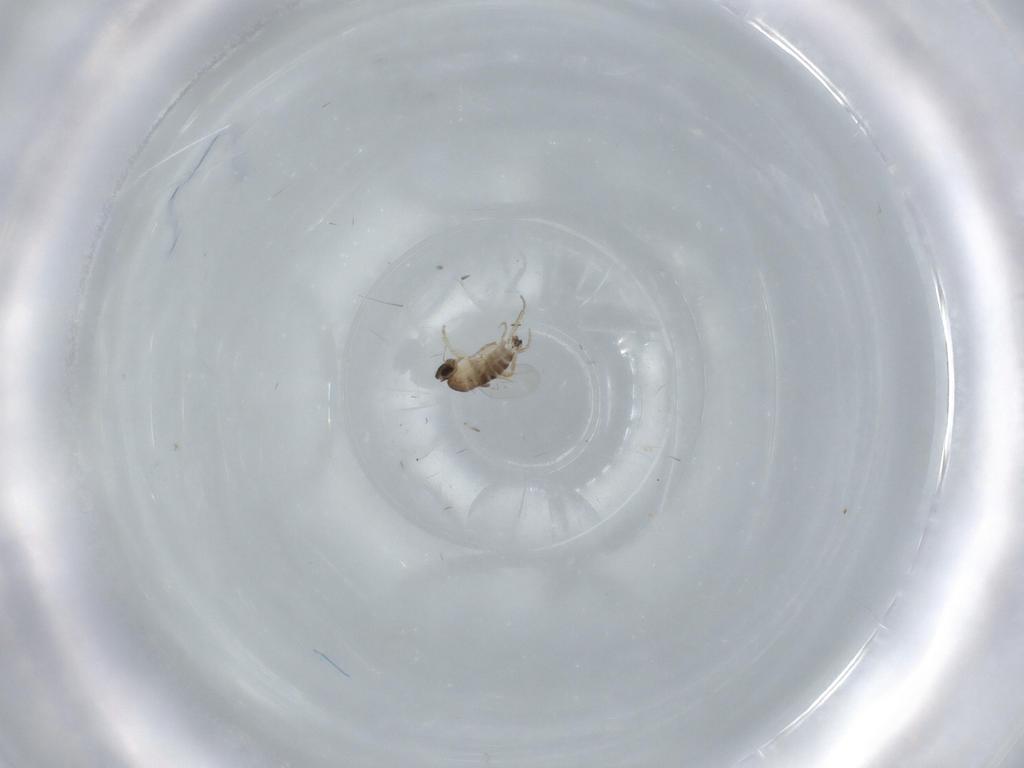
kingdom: Animalia
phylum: Arthropoda
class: Insecta
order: Diptera
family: Phoridae
